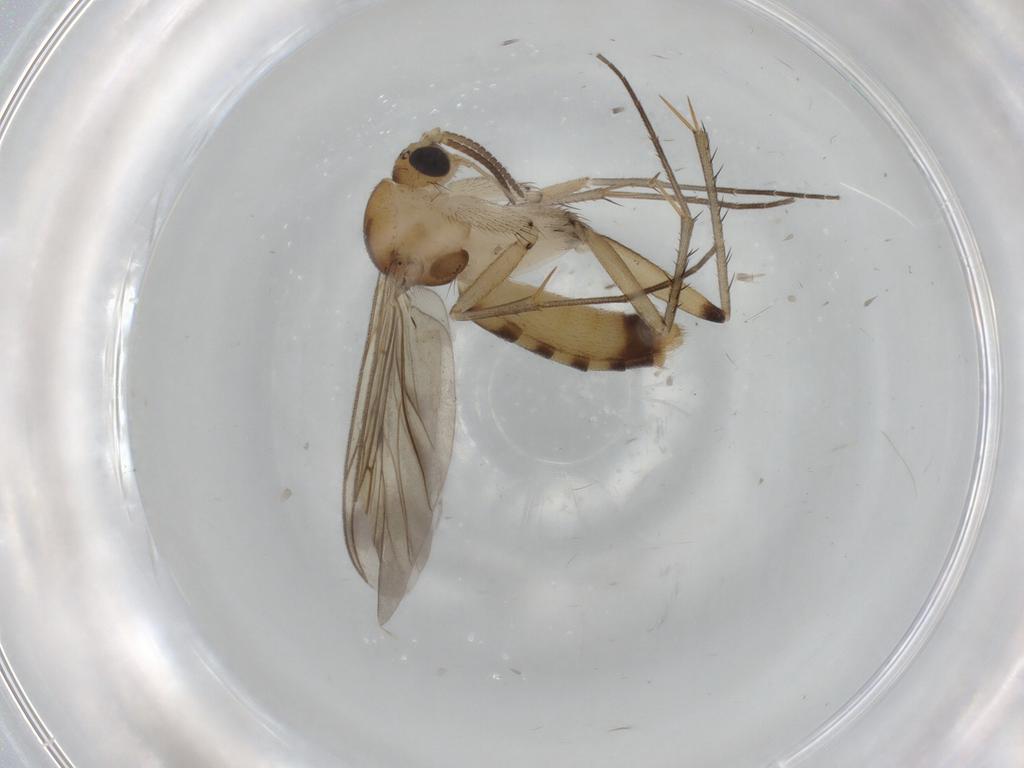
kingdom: Animalia
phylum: Arthropoda
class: Insecta
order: Diptera
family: Mycetophilidae
